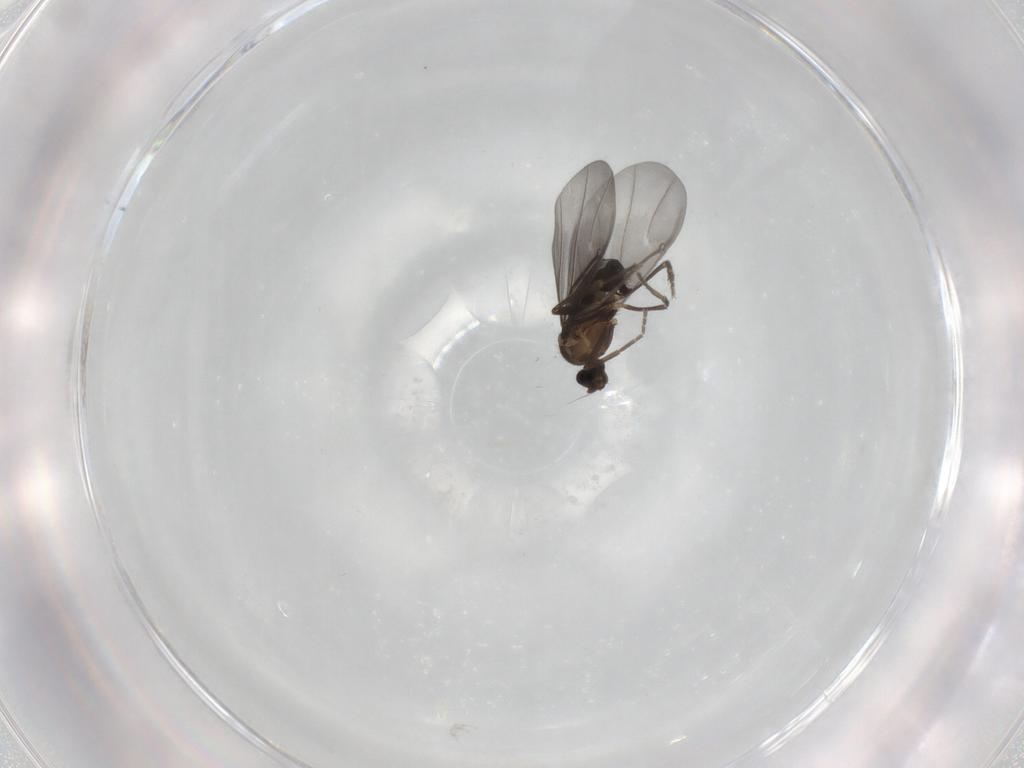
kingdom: Animalia
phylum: Arthropoda
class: Insecta
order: Diptera
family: Phoridae
